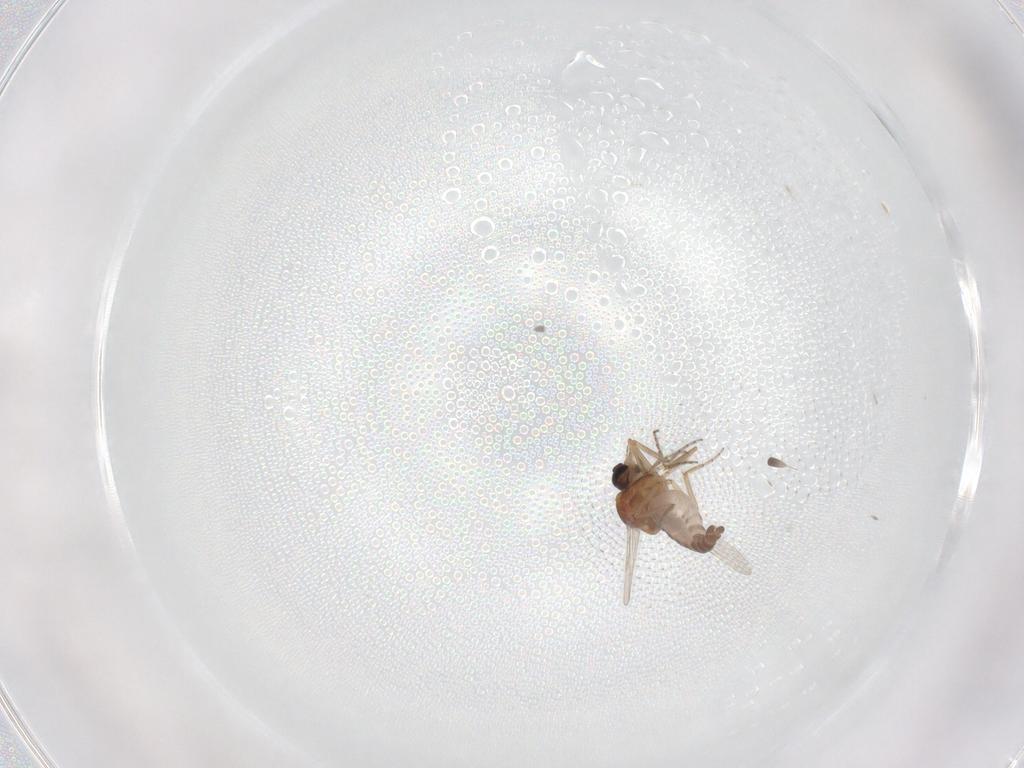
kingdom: Animalia
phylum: Arthropoda
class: Insecta
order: Diptera
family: Ceratopogonidae
